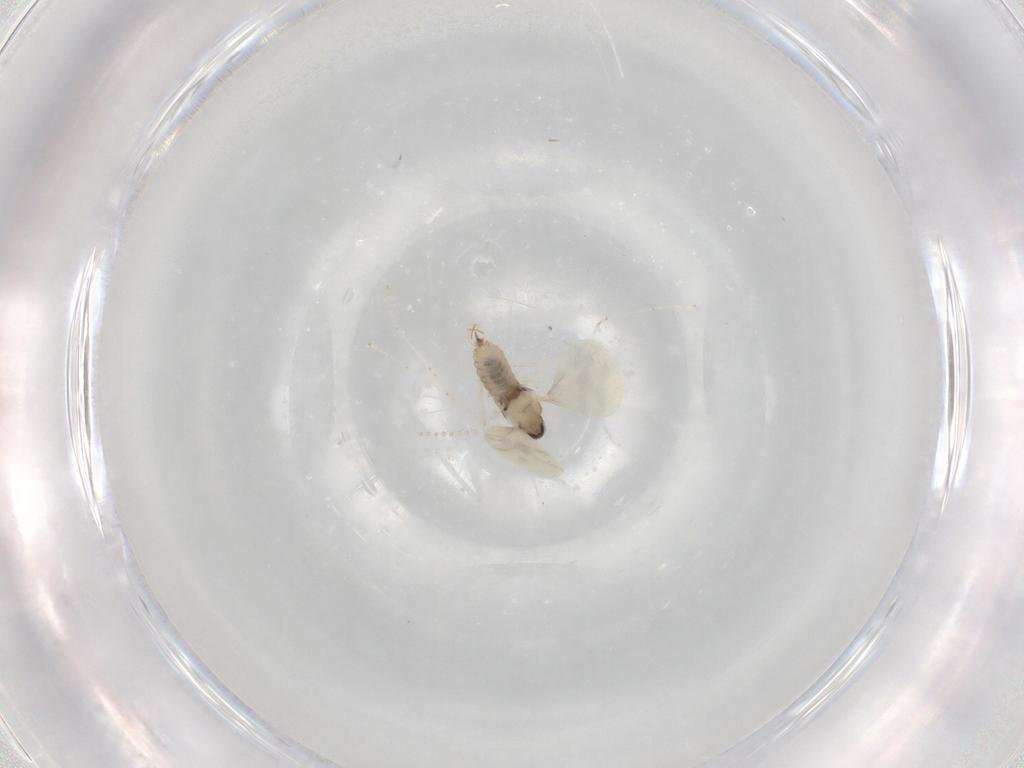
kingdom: Animalia
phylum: Arthropoda
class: Insecta
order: Diptera
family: Cecidomyiidae
